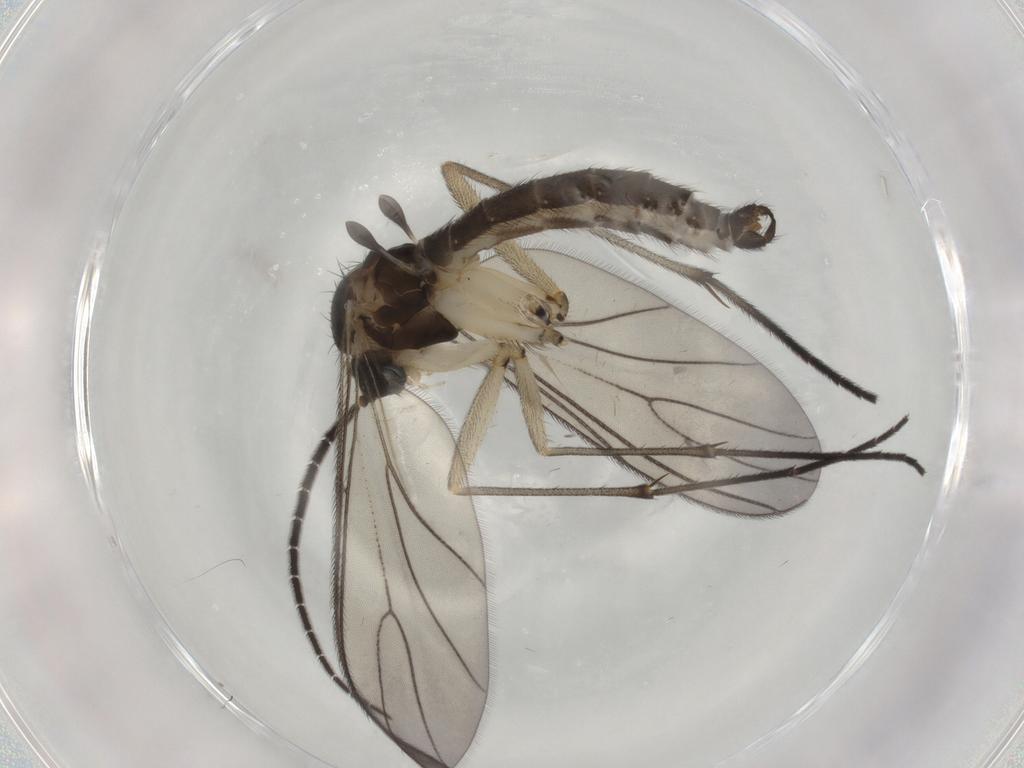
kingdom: Animalia
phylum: Arthropoda
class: Insecta
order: Diptera
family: Sciaridae
